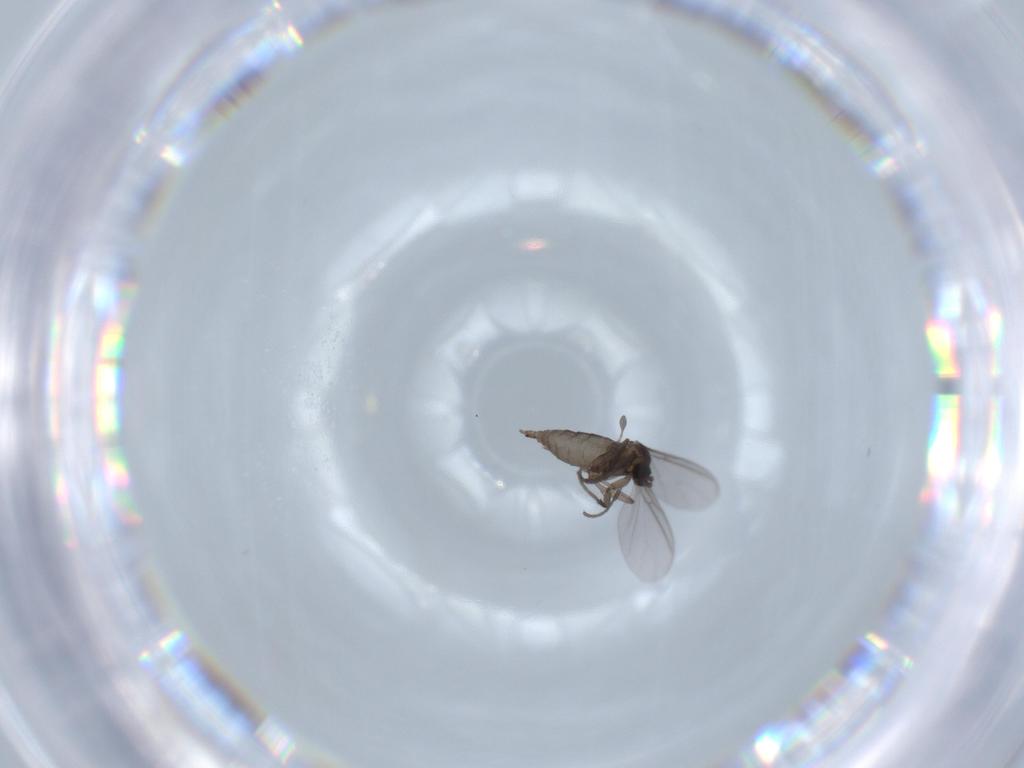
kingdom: Animalia
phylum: Arthropoda
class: Insecta
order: Diptera
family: Sciaridae
